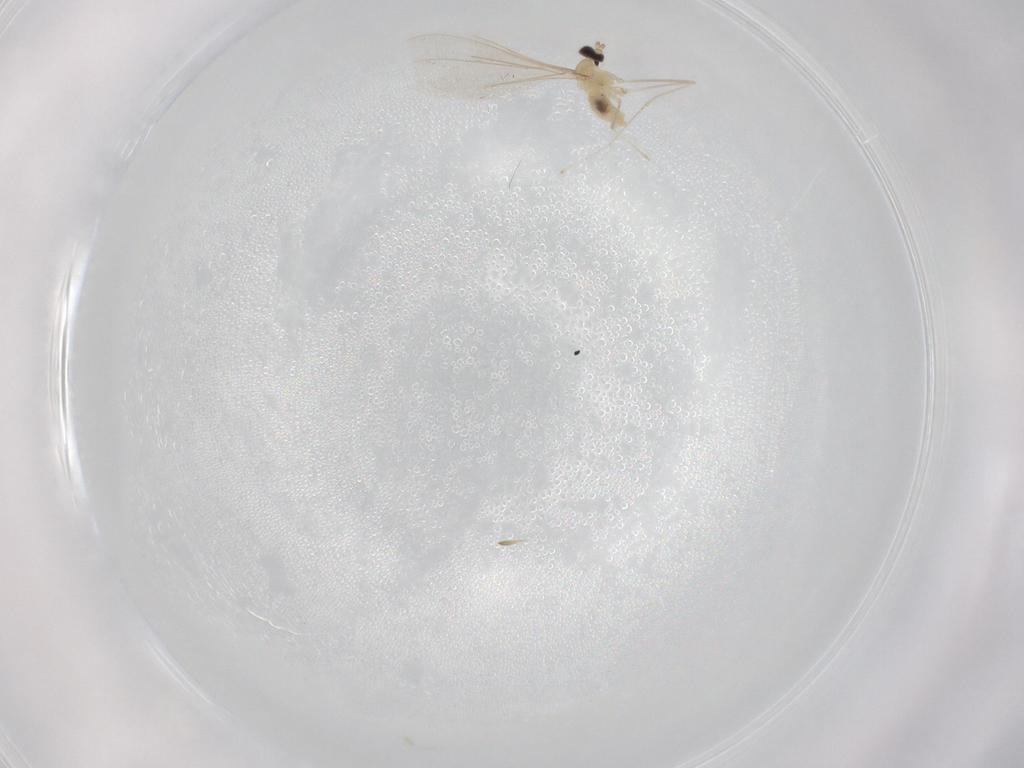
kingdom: Animalia
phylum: Arthropoda
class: Insecta
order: Diptera
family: Cecidomyiidae
